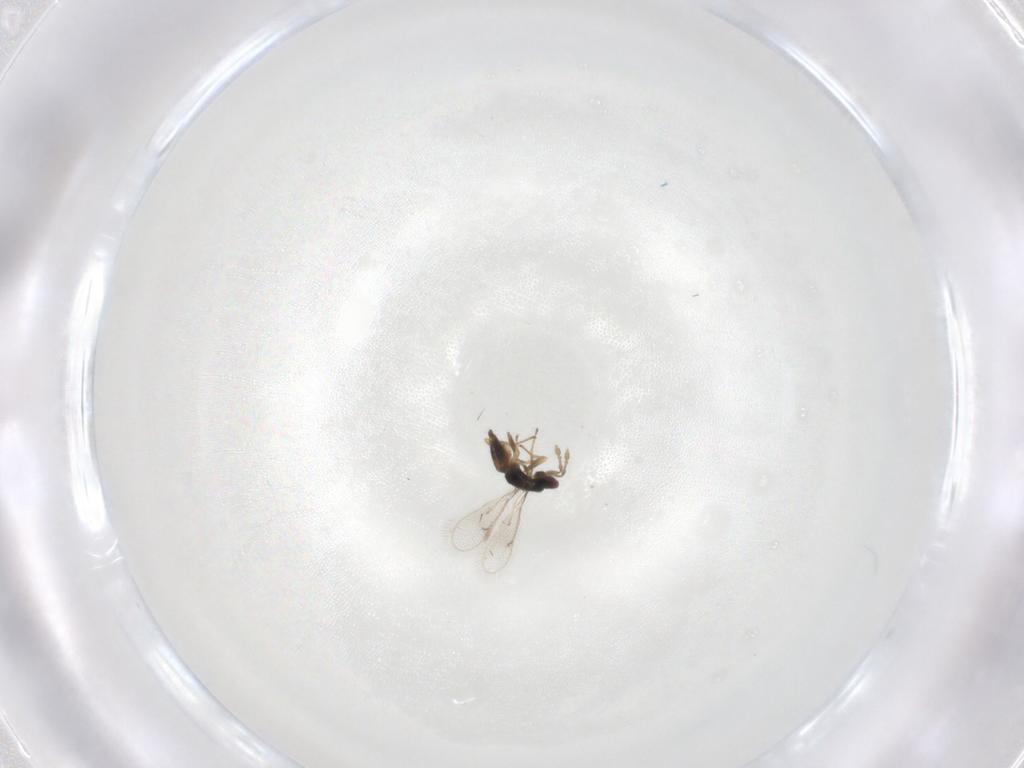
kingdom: Animalia
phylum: Arthropoda
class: Insecta
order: Hymenoptera
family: Eulophidae
